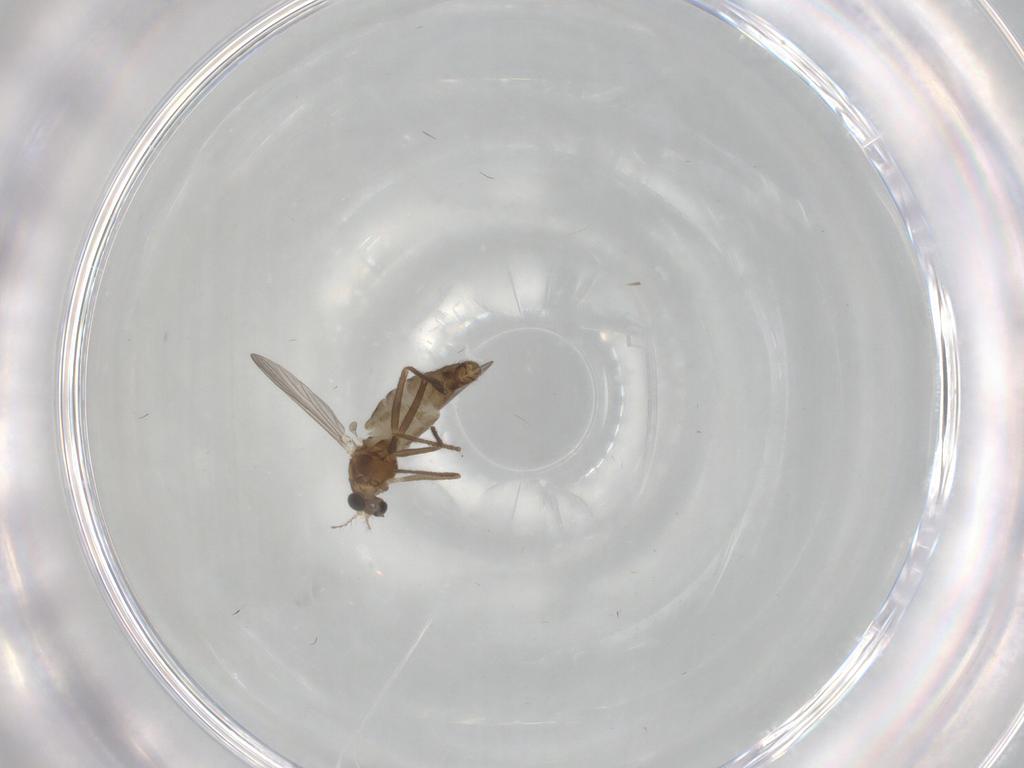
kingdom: Animalia
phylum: Arthropoda
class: Insecta
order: Diptera
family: Chironomidae
